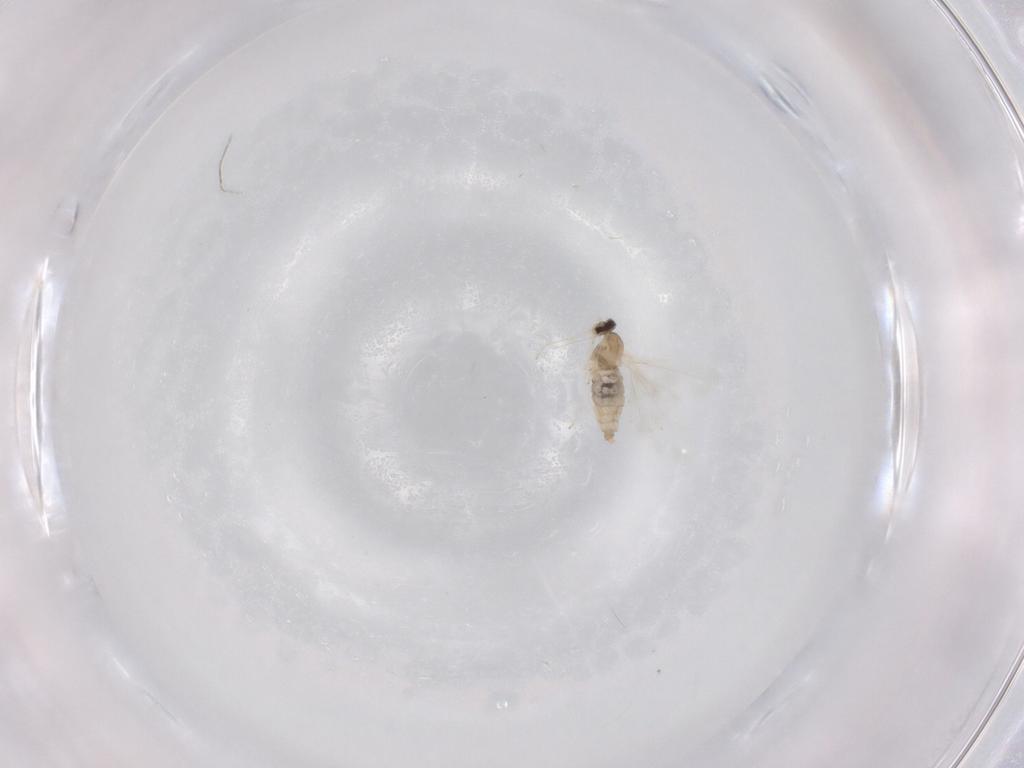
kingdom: Animalia
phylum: Arthropoda
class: Insecta
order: Diptera
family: Cecidomyiidae
